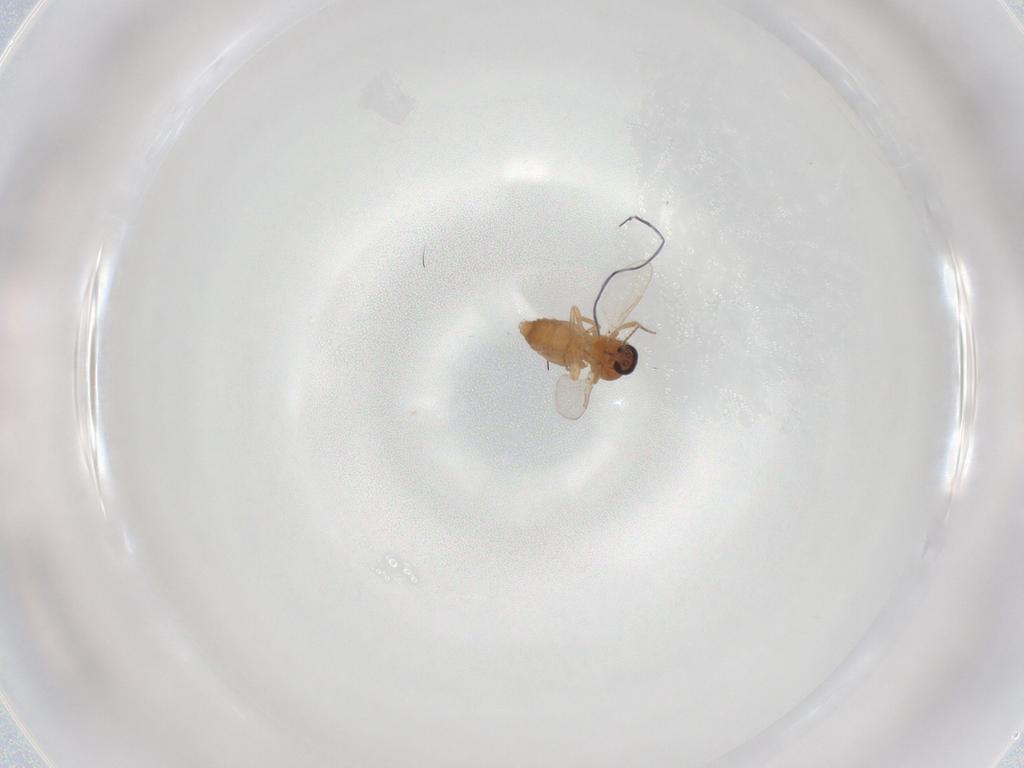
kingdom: Animalia
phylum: Arthropoda
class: Insecta
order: Diptera
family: Ceratopogonidae
